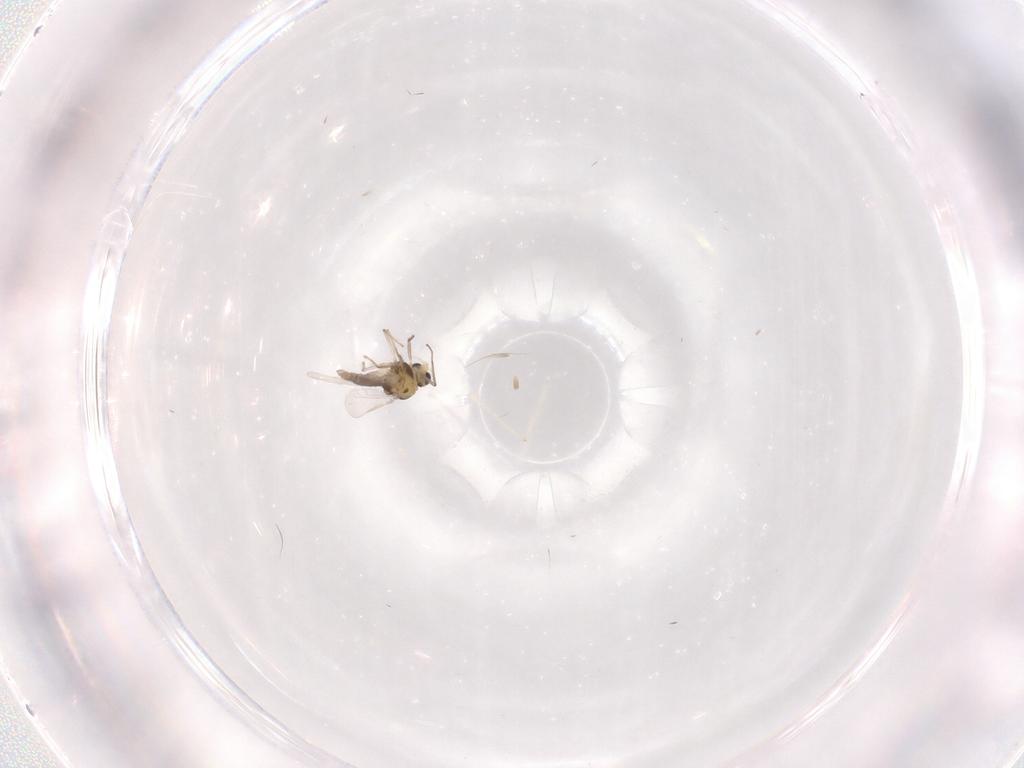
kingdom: Animalia
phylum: Arthropoda
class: Insecta
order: Diptera
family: Chironomidae
